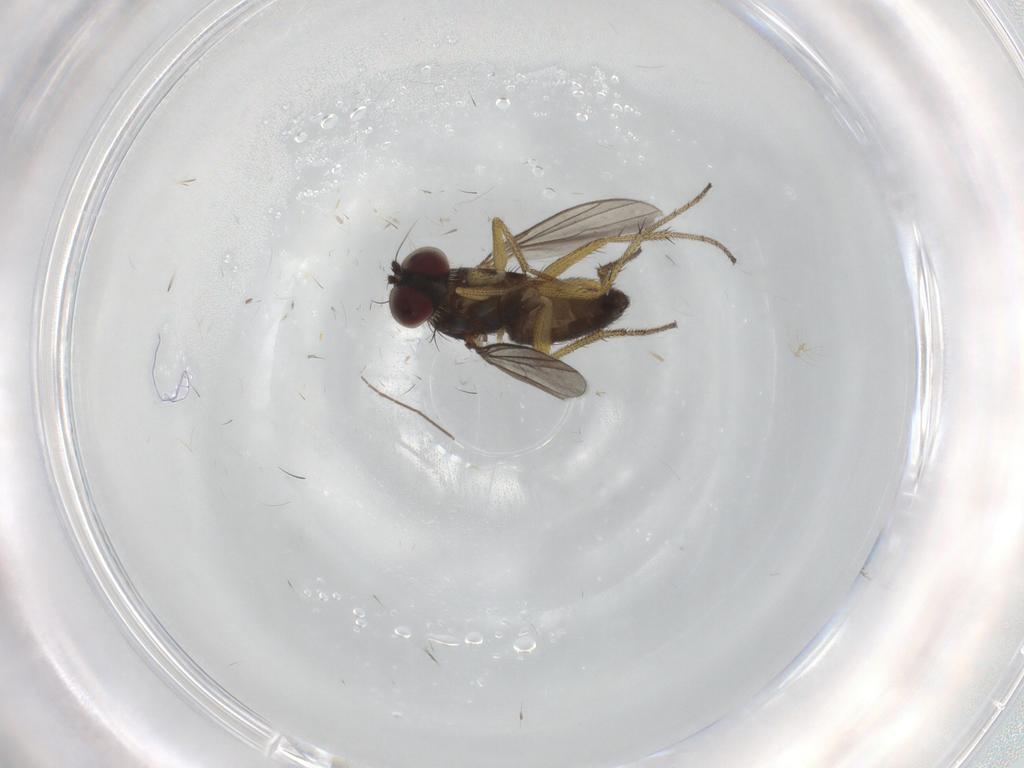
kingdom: Animalia
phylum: Arthropoda
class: Insecta
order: Diptera
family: Dolichopodidae
